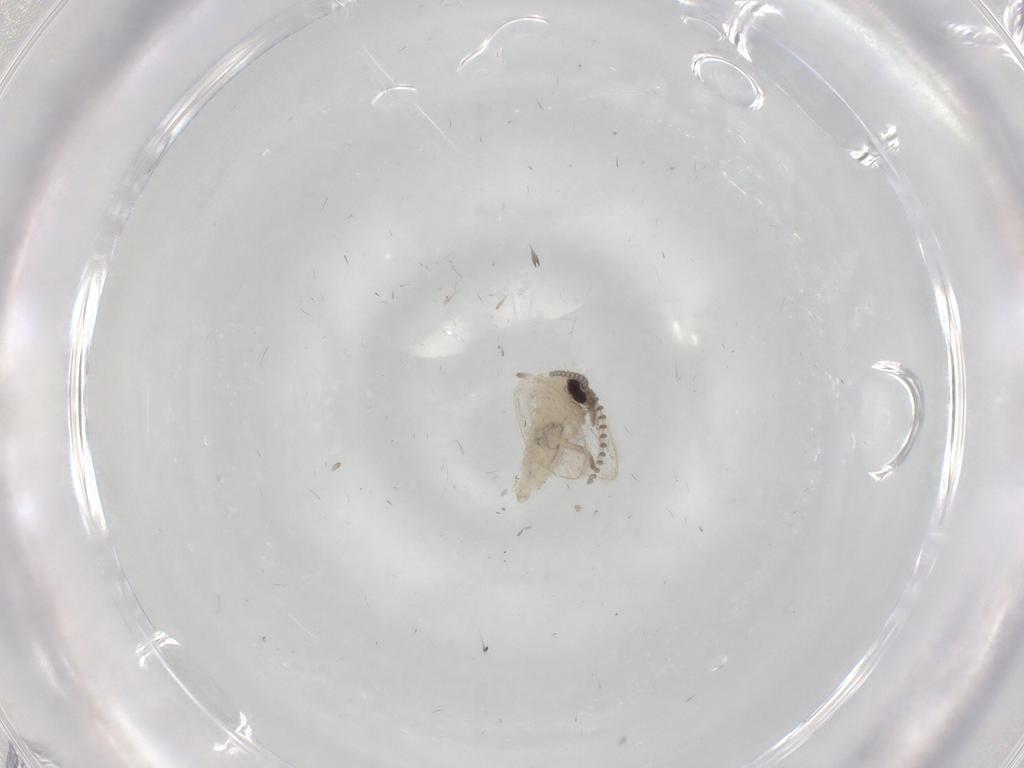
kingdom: Animalia
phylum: Arthropoda
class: Insecta
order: Diptera
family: Psychodidae
